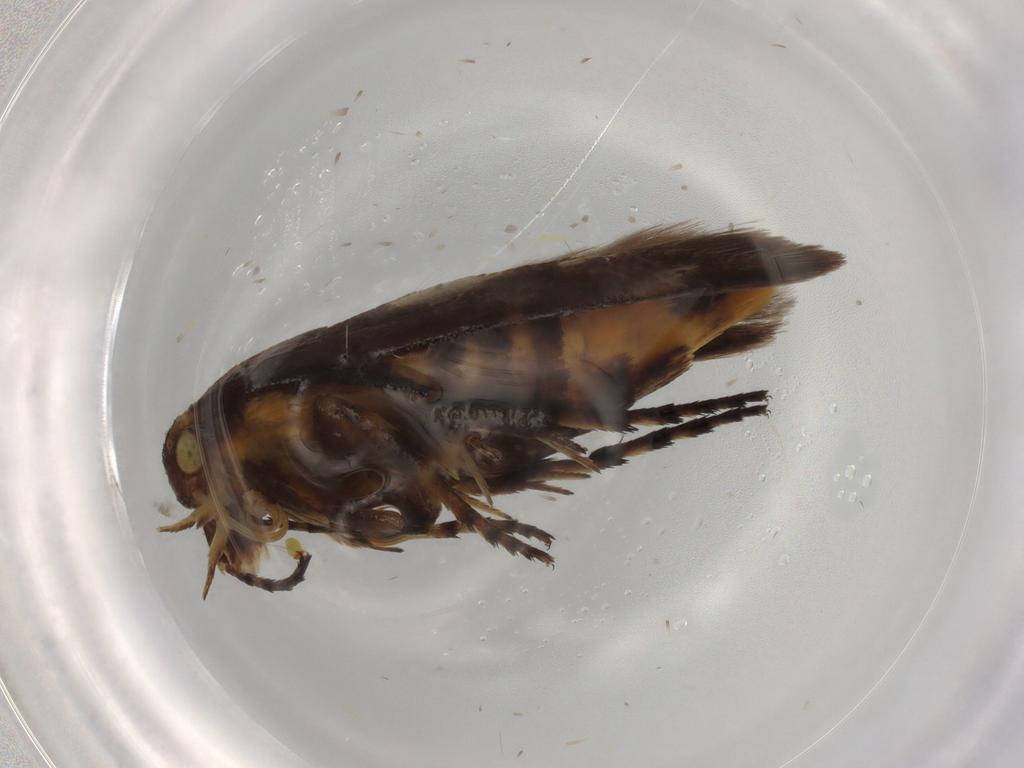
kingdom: Animalia
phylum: Arthropoda
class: Insecta
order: Lepidoptera
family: Scythrididae
